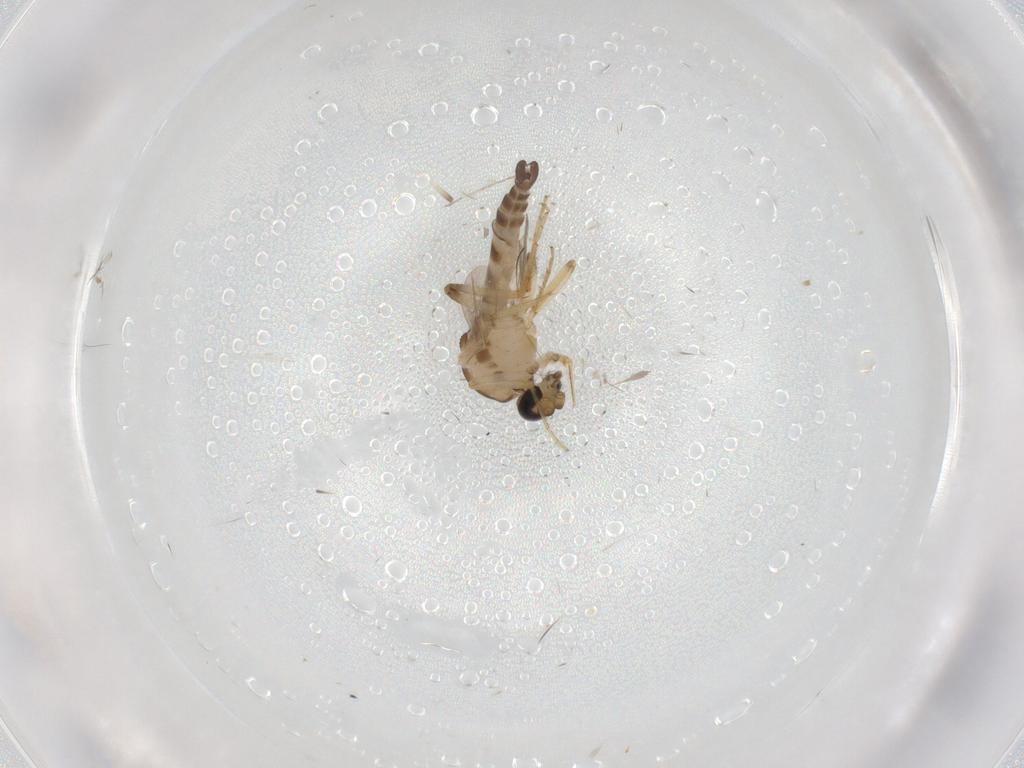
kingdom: Animalia
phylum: Arthropoda
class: Insecta
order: Diptera
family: Ceratopogonidae
